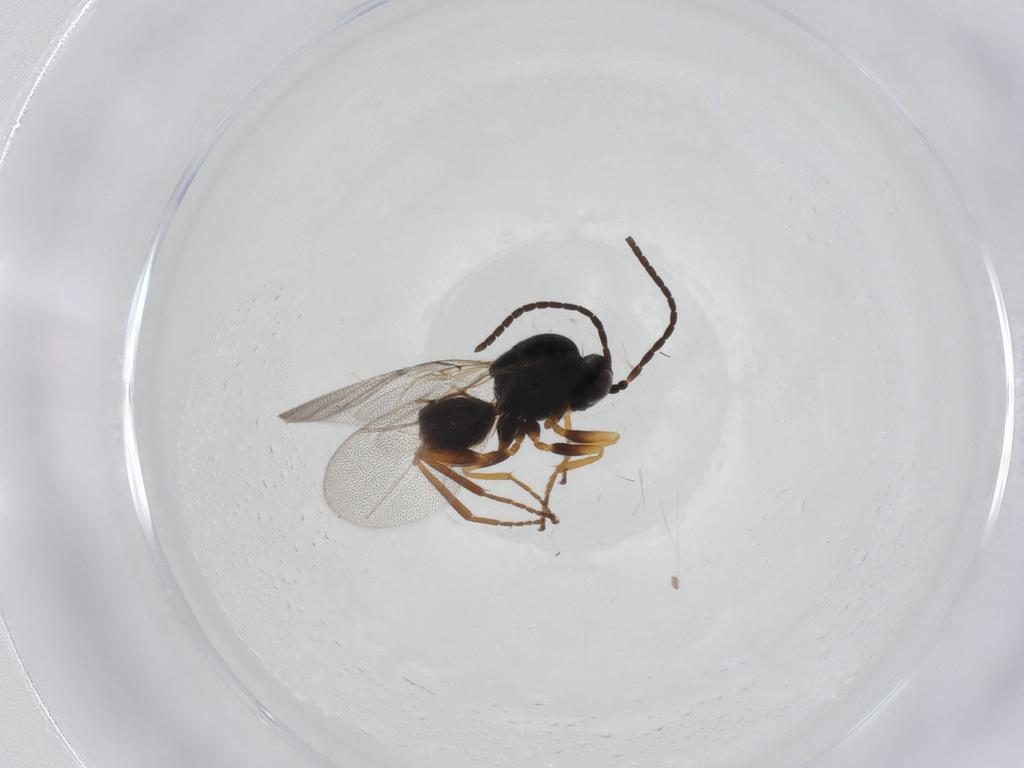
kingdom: Animalia
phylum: Arthropoda
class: Insecta
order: Hymenoptera
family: Cynipidae
